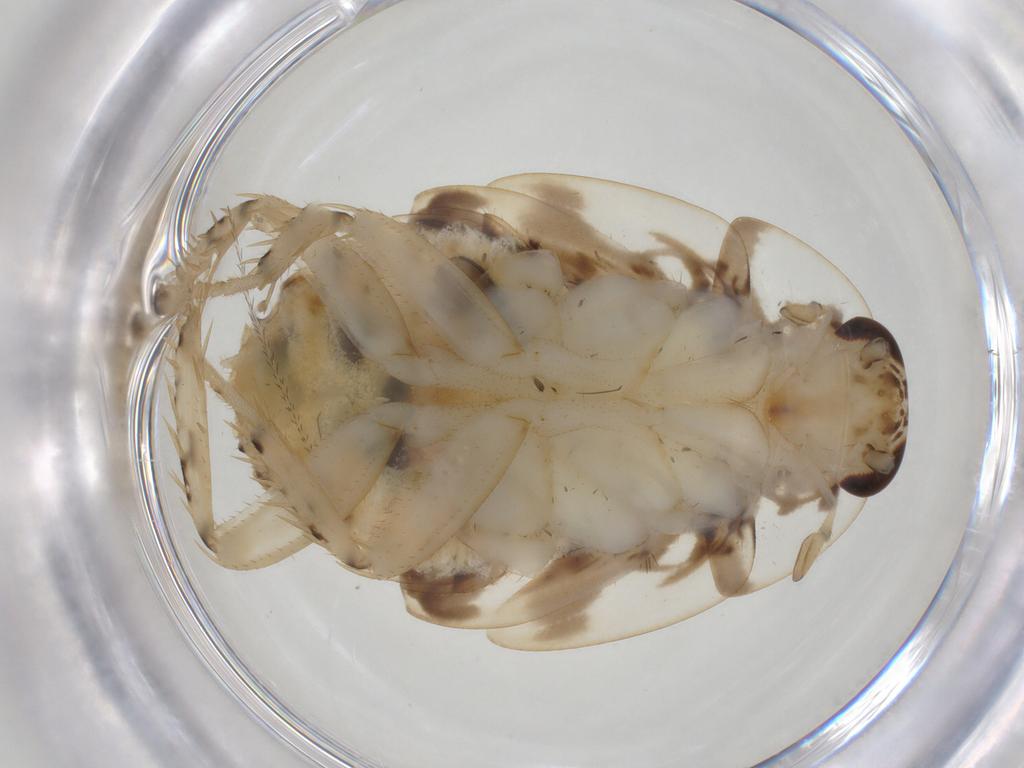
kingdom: Animalia
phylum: Arthropoda
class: Insecta
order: Blattodea
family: Ectobiidae
